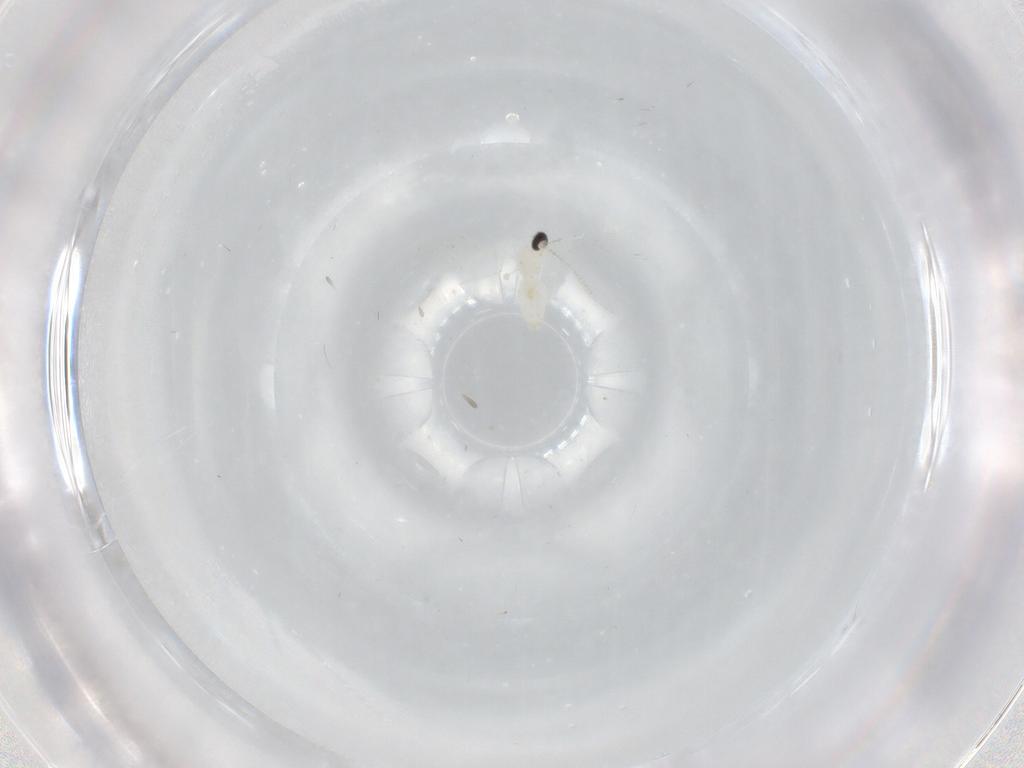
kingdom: Animalia
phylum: Arthropoda
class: Insecta
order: Diptera
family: Cecidomyiidae
